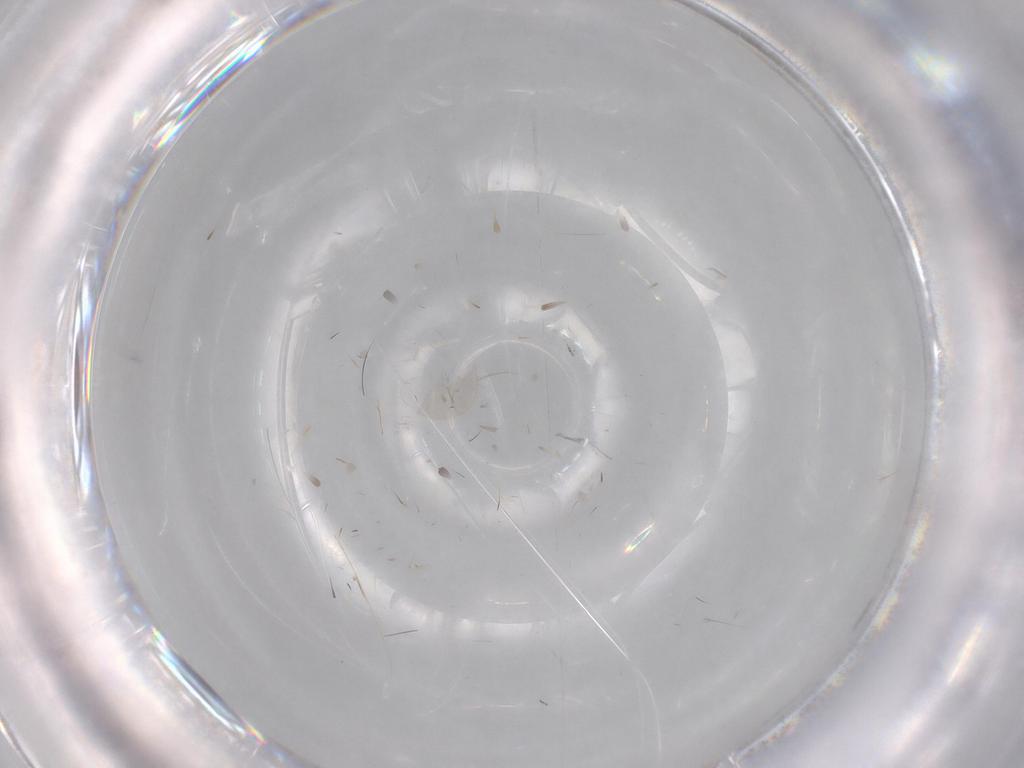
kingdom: Animalia
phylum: Arthropoda
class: Insecta
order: Diptera
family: Cecidomyiidae
